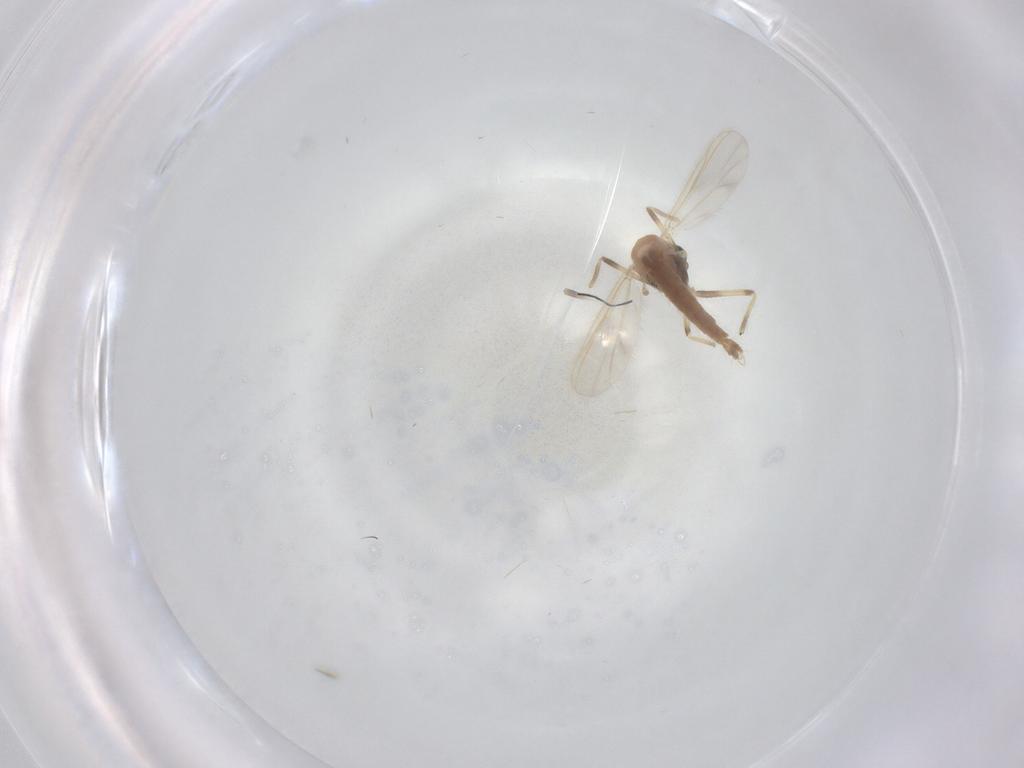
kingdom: Animalia
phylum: Arthropoda
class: Insecta
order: Diptera
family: Chironomidae
